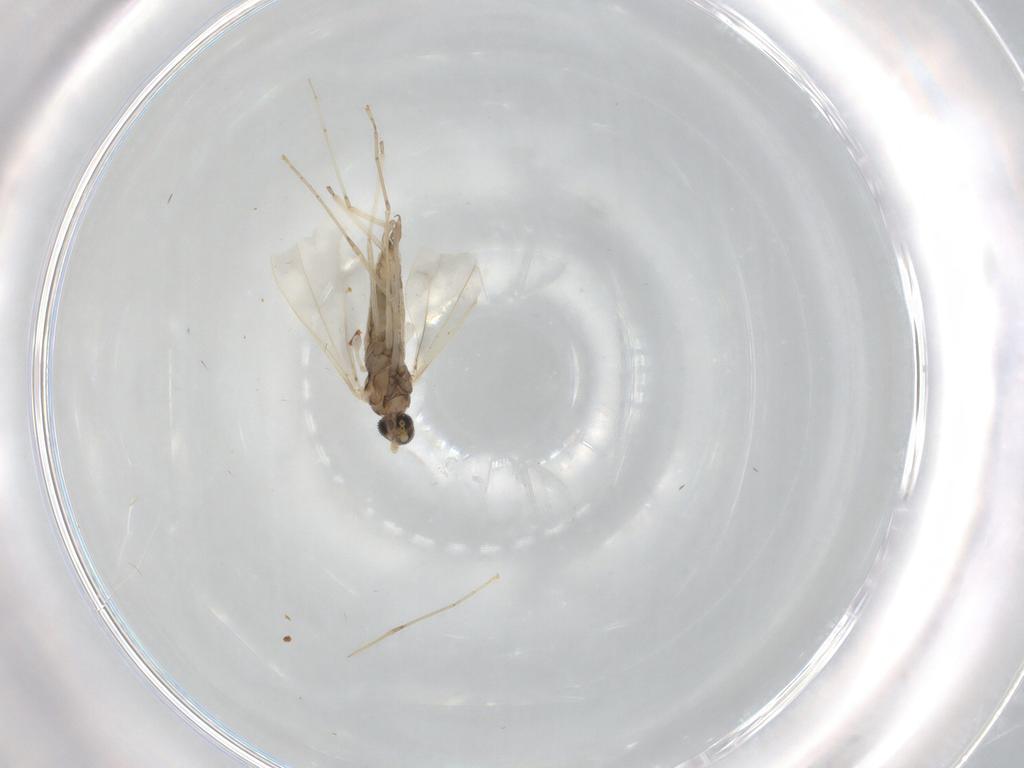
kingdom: Animalia
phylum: Arthropoda
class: Insecta
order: Diptera
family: Cecidomyiidae
